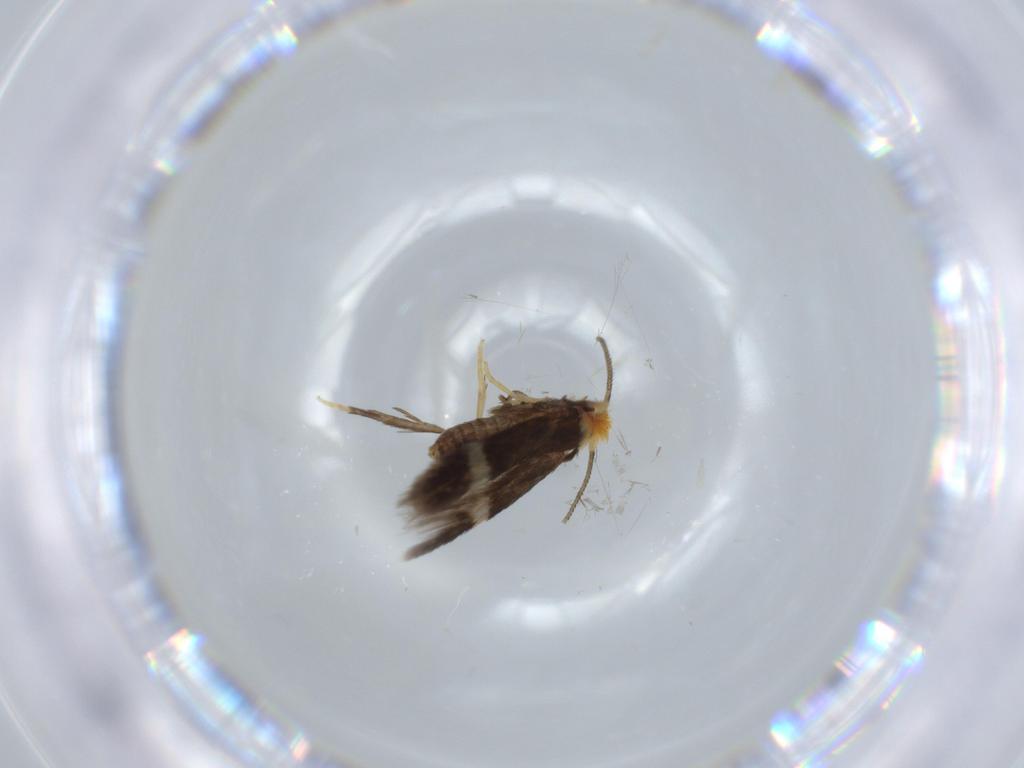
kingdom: Animalia
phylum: Arthropoda
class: Insecta
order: Lepidoptera
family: Nepticulidae
